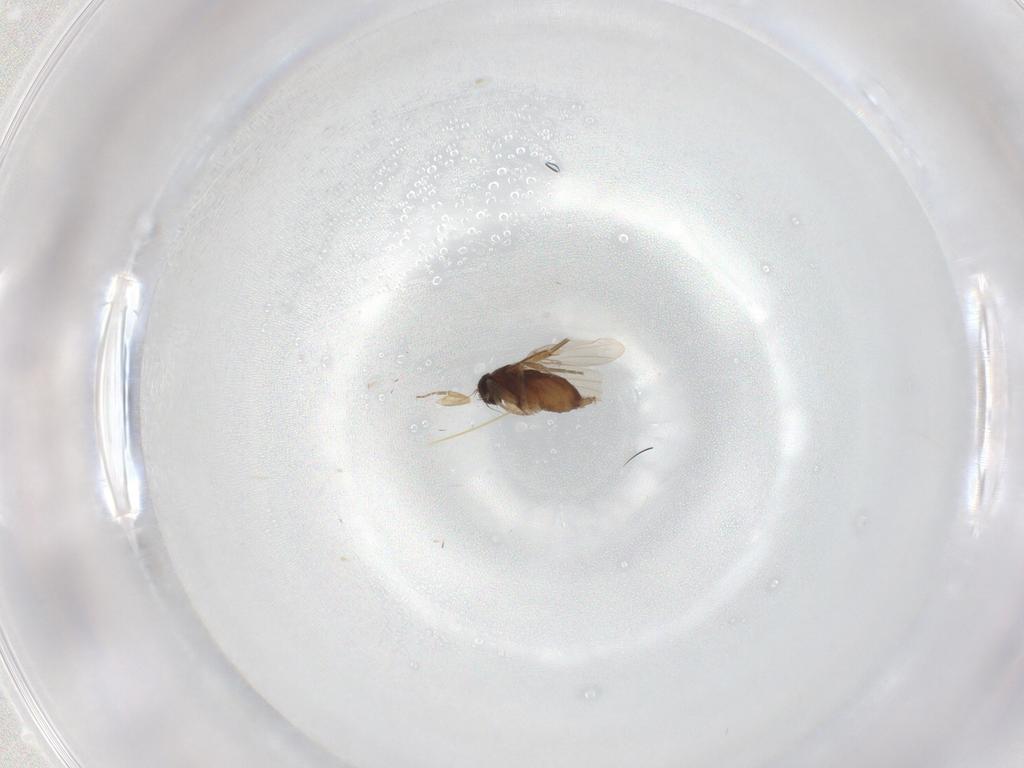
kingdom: Animalia
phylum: Arthropoda
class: Insecta
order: Diptera
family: Phoridae
